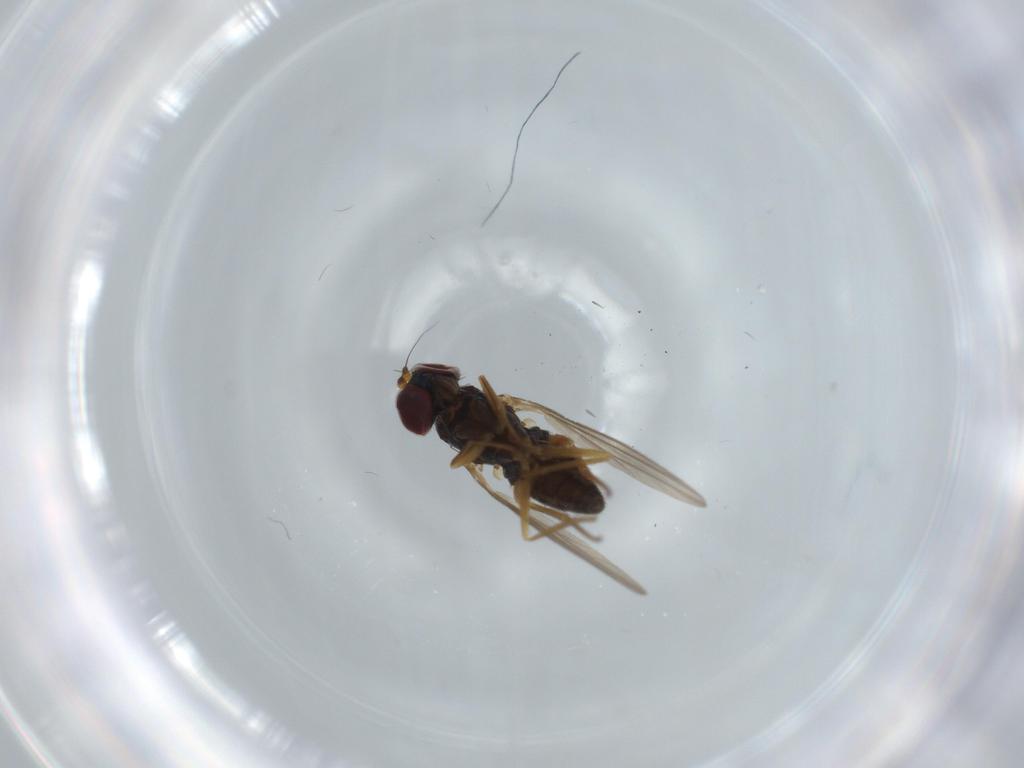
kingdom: Animalia
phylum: Arthropoda
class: Insecta
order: Diptera
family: Dolichopodidae
